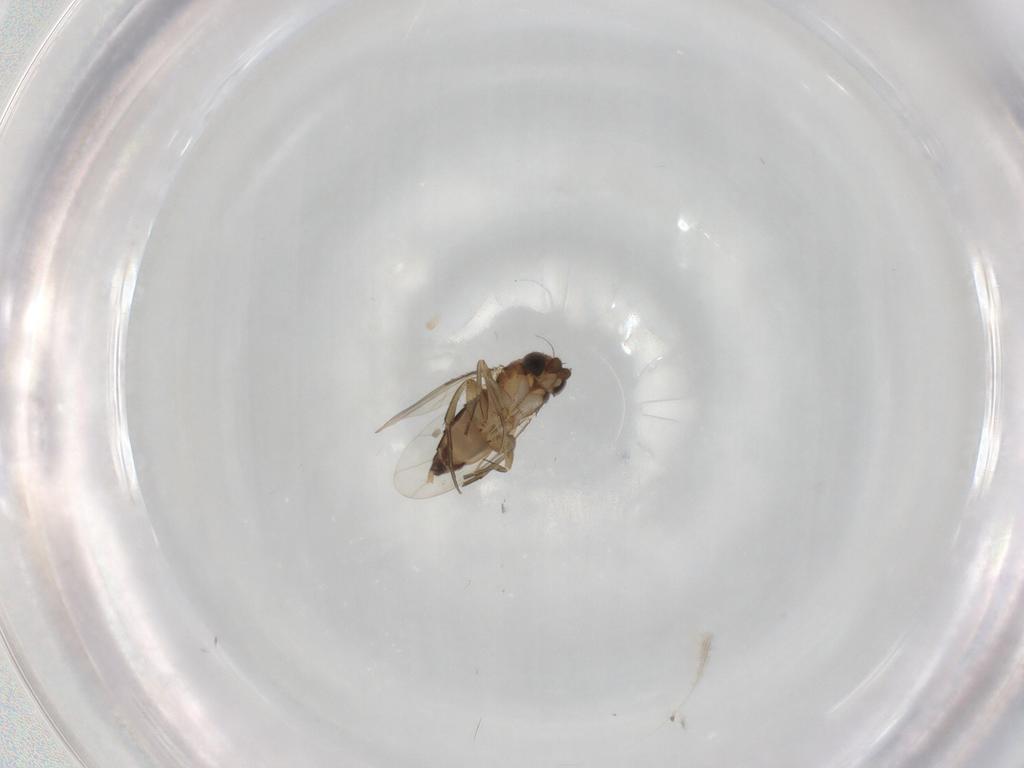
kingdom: Animalia
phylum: Arthropoda
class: Insecta
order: Diptera
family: Phoridae
